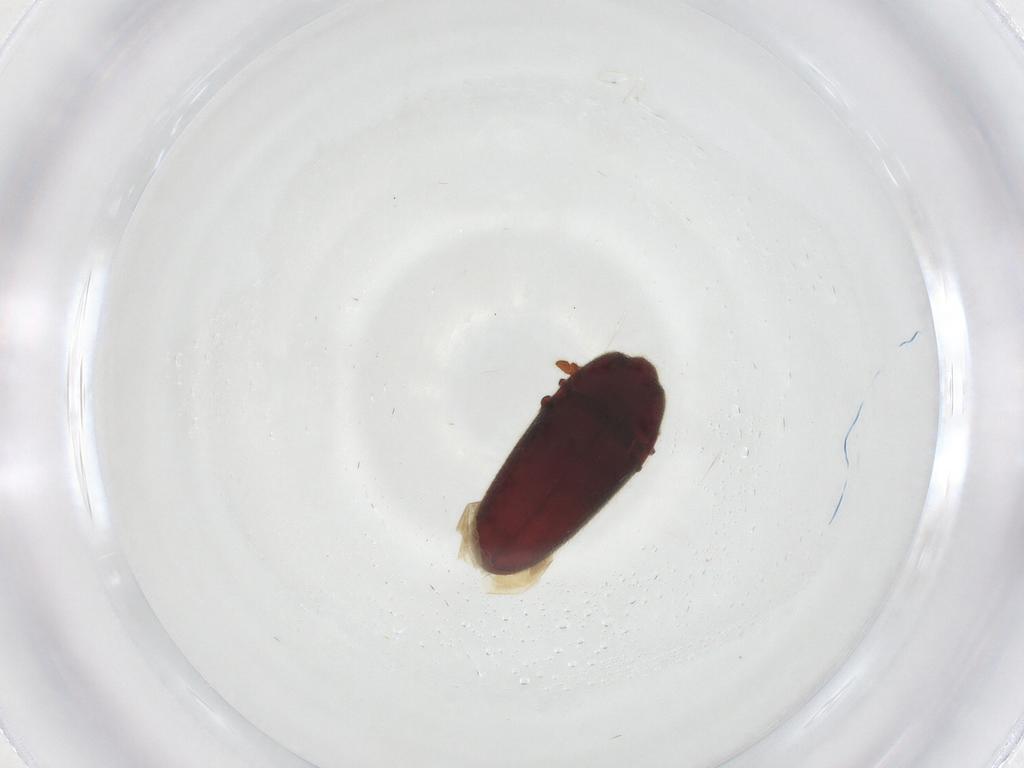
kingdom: Animalia
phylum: Arthropoda
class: Insecta
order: Coleoptera
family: Throscidae
